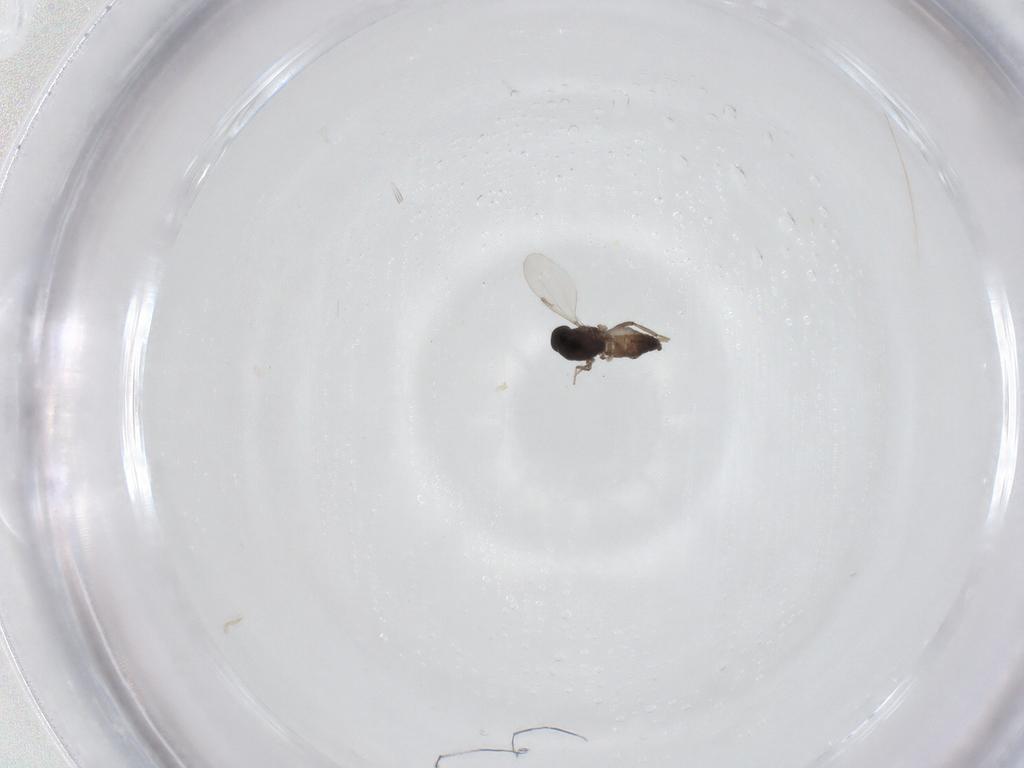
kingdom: Animalia
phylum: Arthropoda
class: Insecta
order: Diptera
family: Ceratopogonidae
